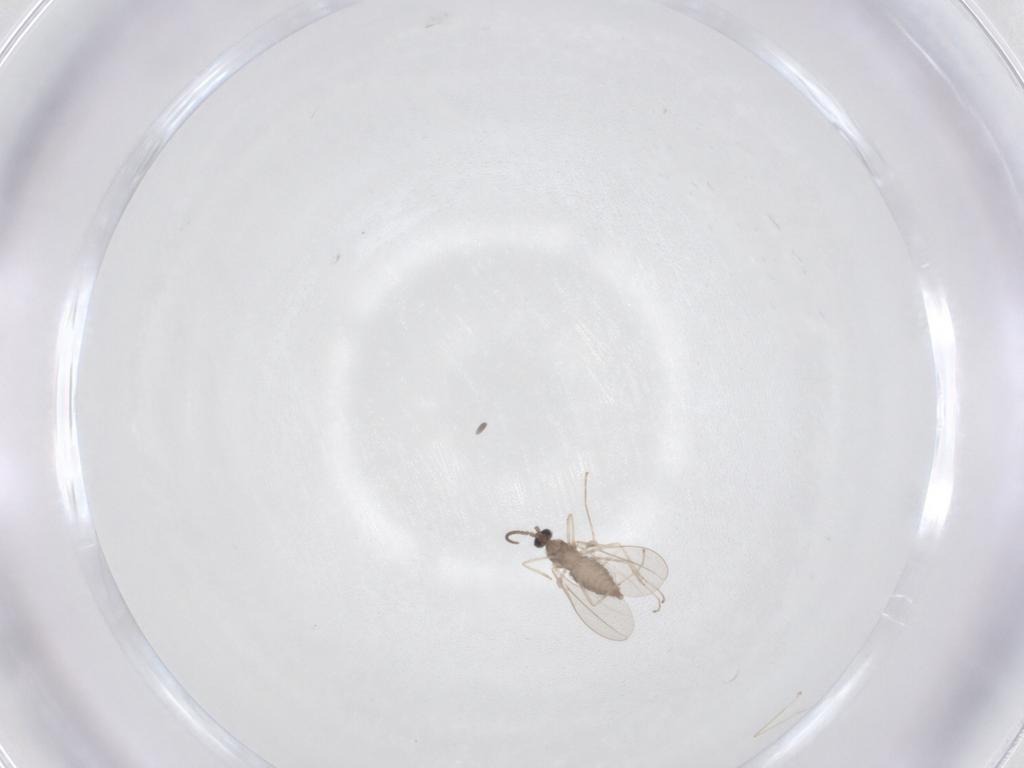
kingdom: Animalia
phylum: Arthropoda
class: Insecta
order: Diptera
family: Cecidomyiidae
